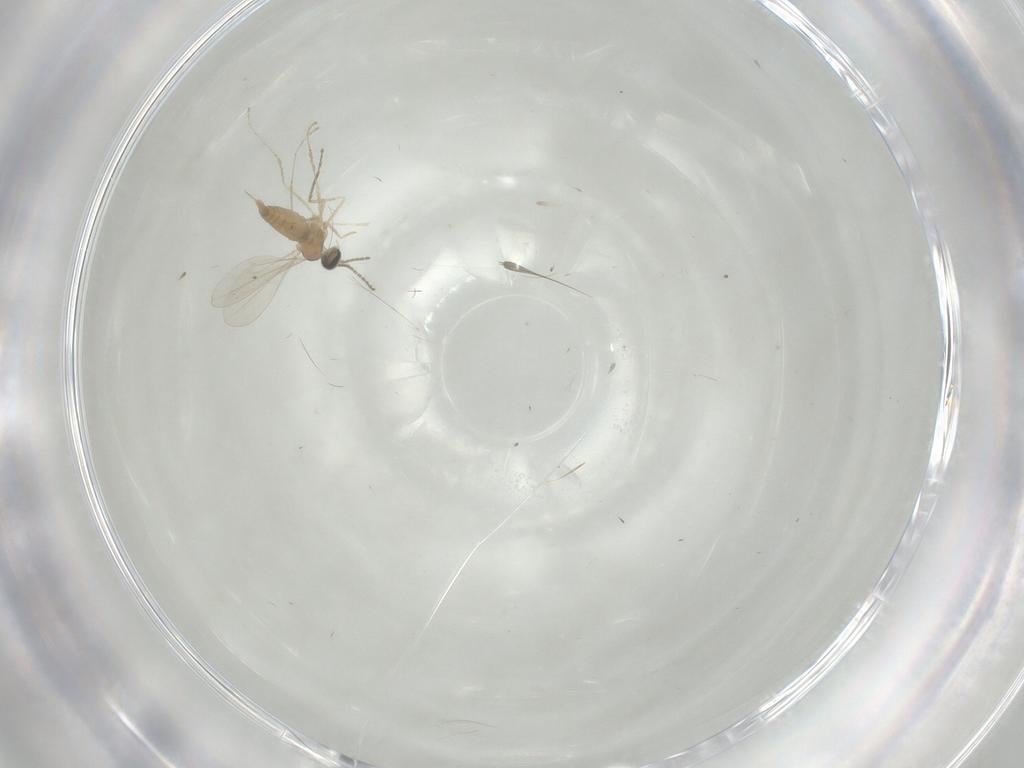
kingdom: Animalia
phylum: Arthropoda
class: Insecta
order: Diptera
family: Cecidomyiidae
